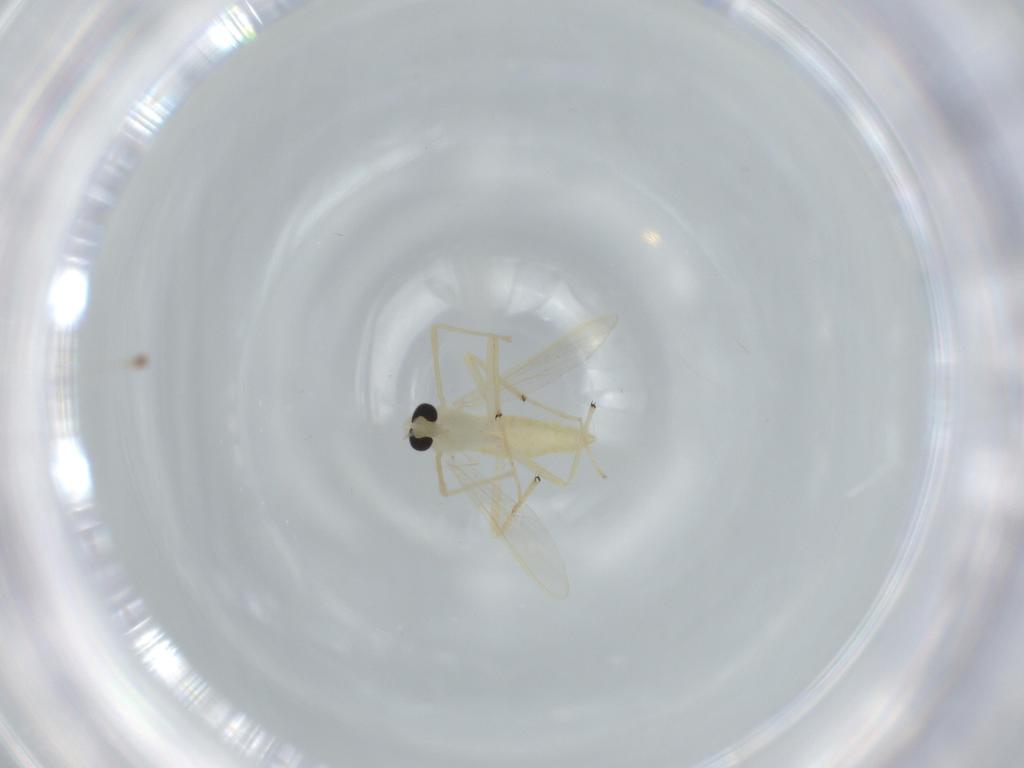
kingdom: Animalia
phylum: Arthropoda
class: Insecta
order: Diptera
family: Chironomidae
